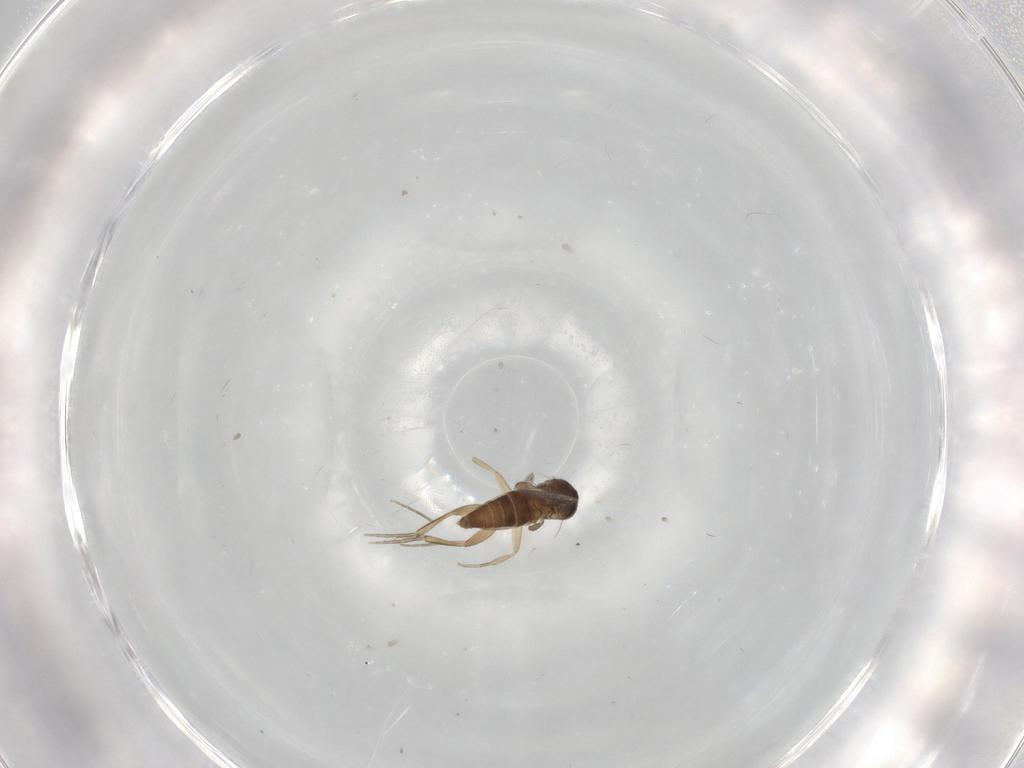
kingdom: Animalia
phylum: Arthropoda
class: Insecta
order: Diptera
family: Phoridae
